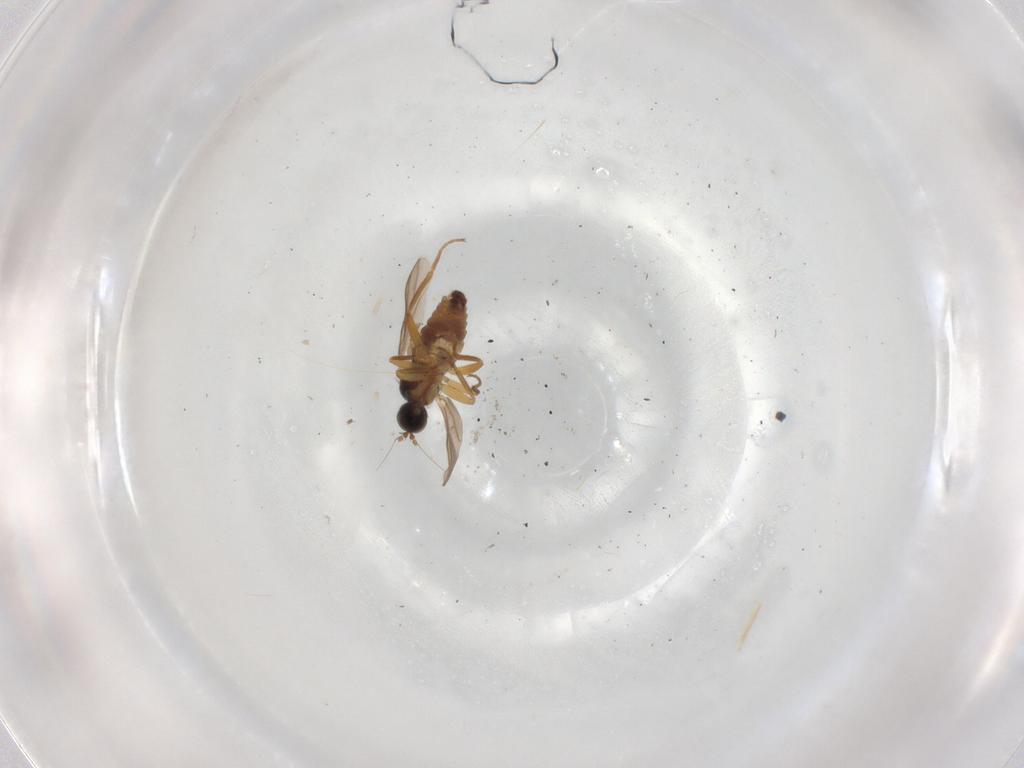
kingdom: Animalia
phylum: Arthropoda
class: Insecta
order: Diptera
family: Hybotidae
